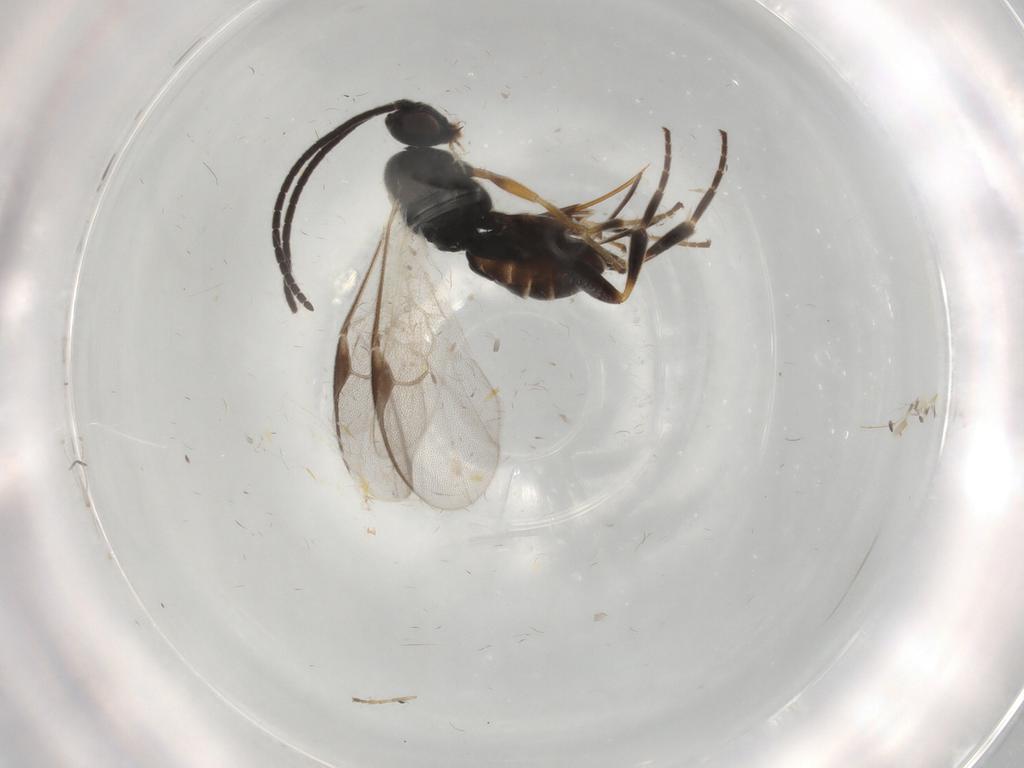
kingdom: Animalia
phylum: Arthropoda
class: Insecta
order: Hymenoptera
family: Braconidae
